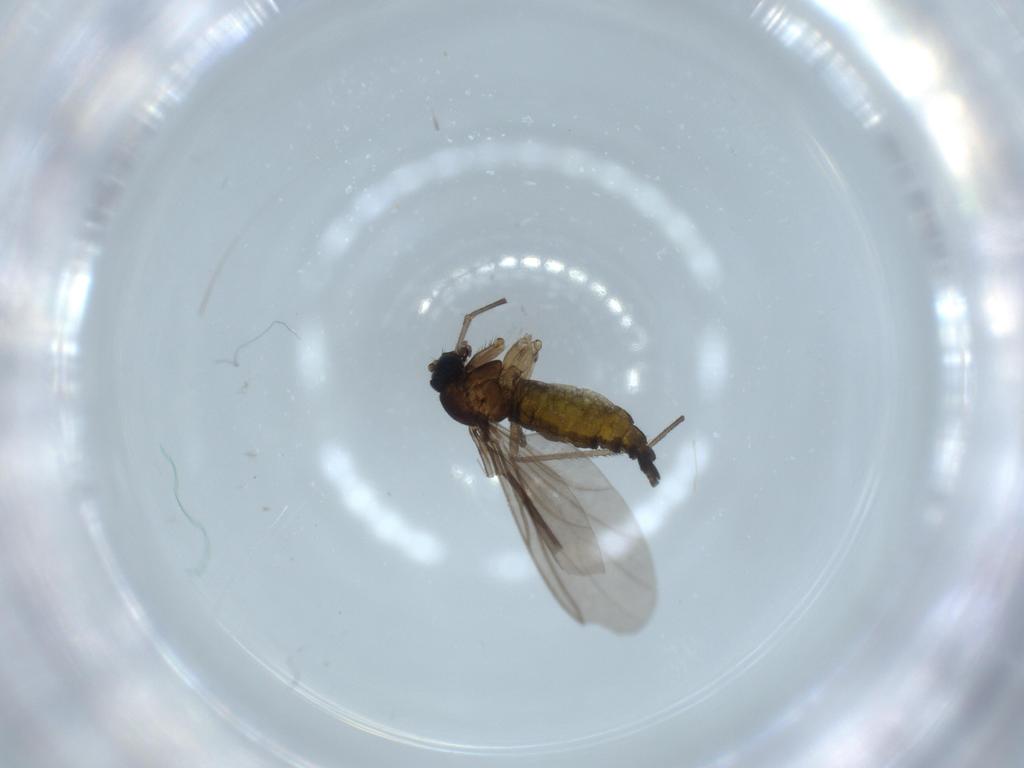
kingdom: Animalia
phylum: Arthropoda
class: Insecta
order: Diptera
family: Sciaridae
